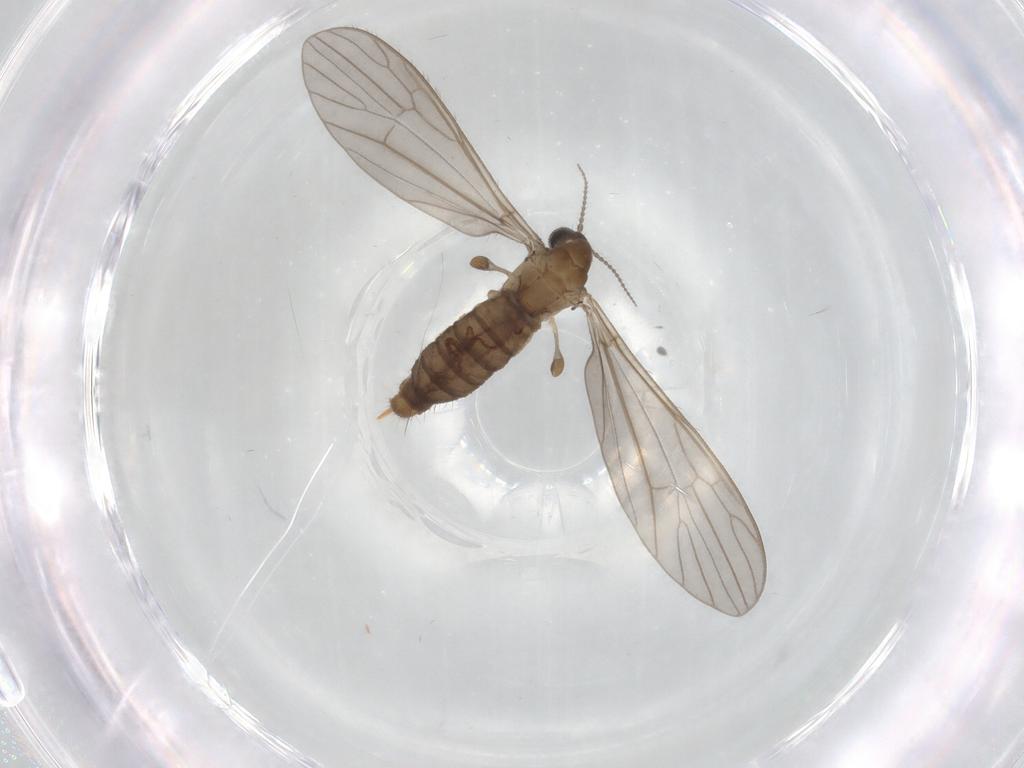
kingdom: Animalia
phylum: Arthropoda
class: Insecta
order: Diptera
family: Limoniidae
